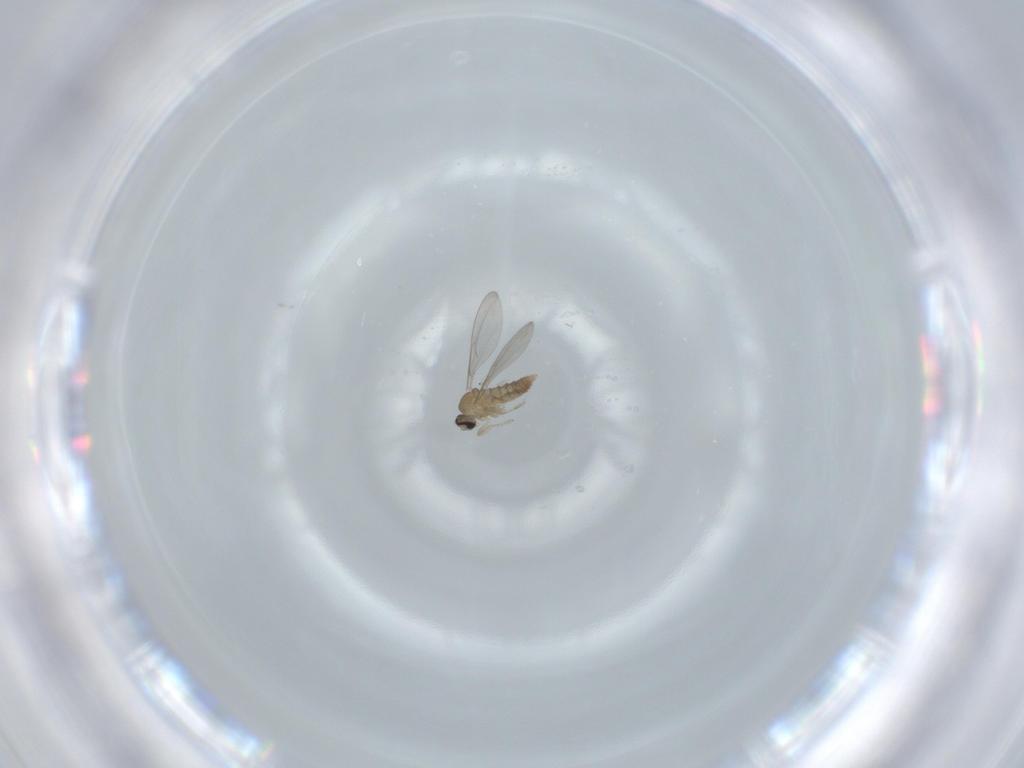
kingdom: Animalia
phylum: Arthropoda
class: Insecta
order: Diptera
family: Cecidomyiidae
